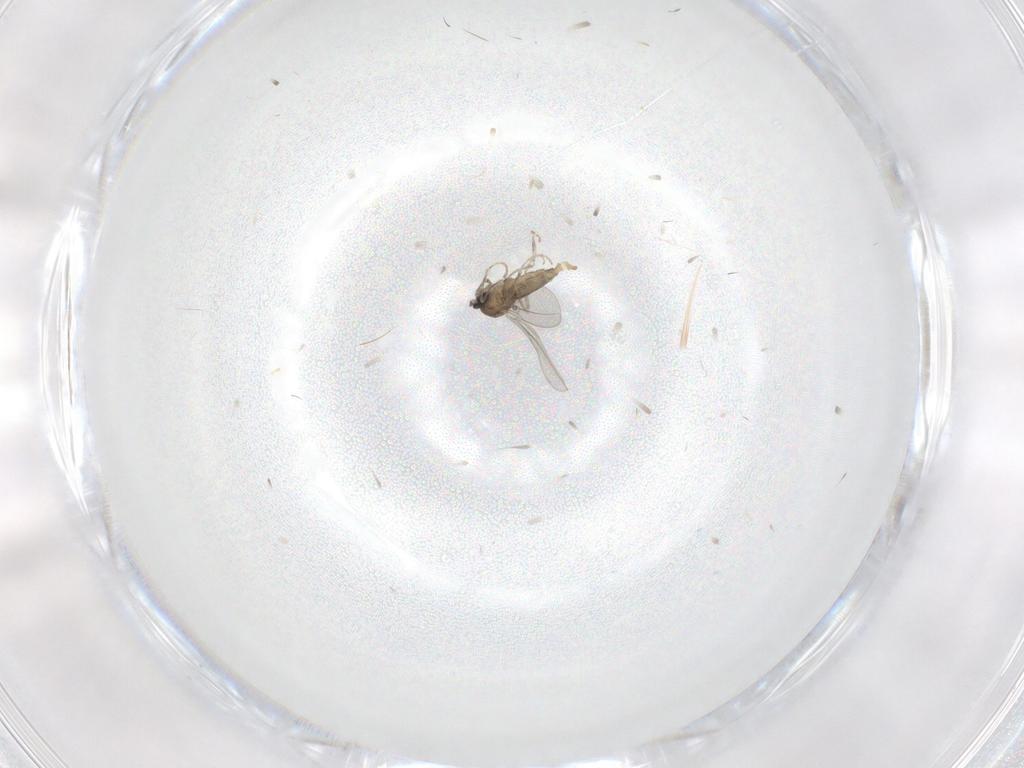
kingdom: Animalia
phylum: Arthropoda
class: Insecta
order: Diptera
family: Cecidomyiidae
